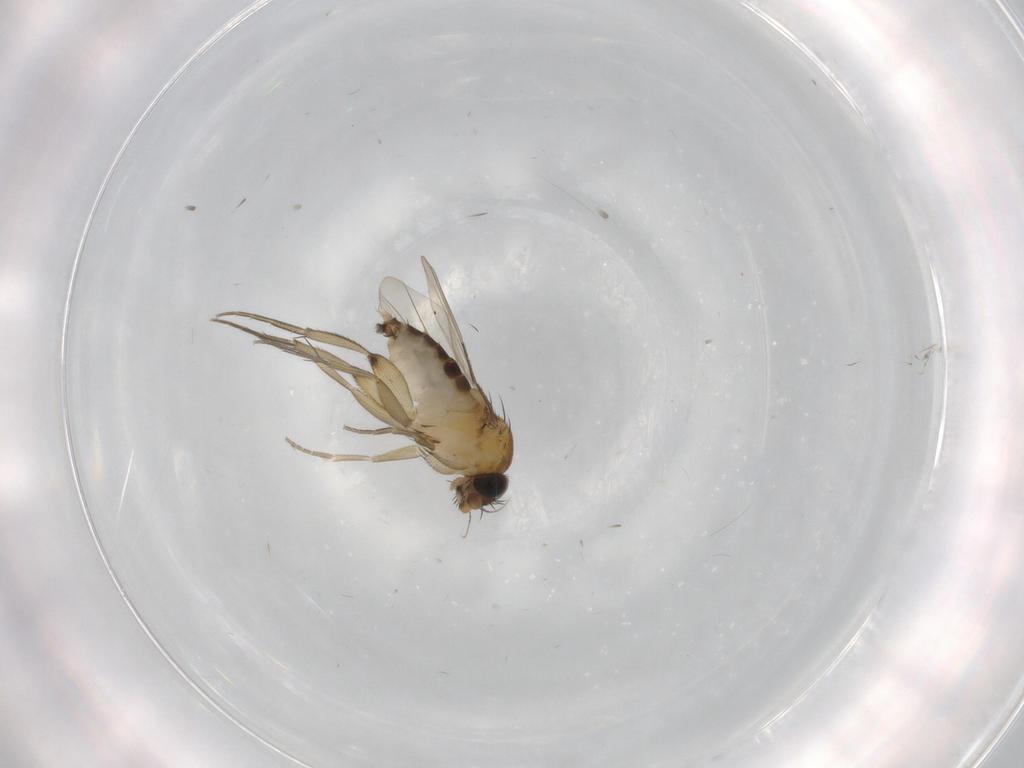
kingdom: Animalia
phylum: Arthropoda
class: Insecta
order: Diptera
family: Phoridae
